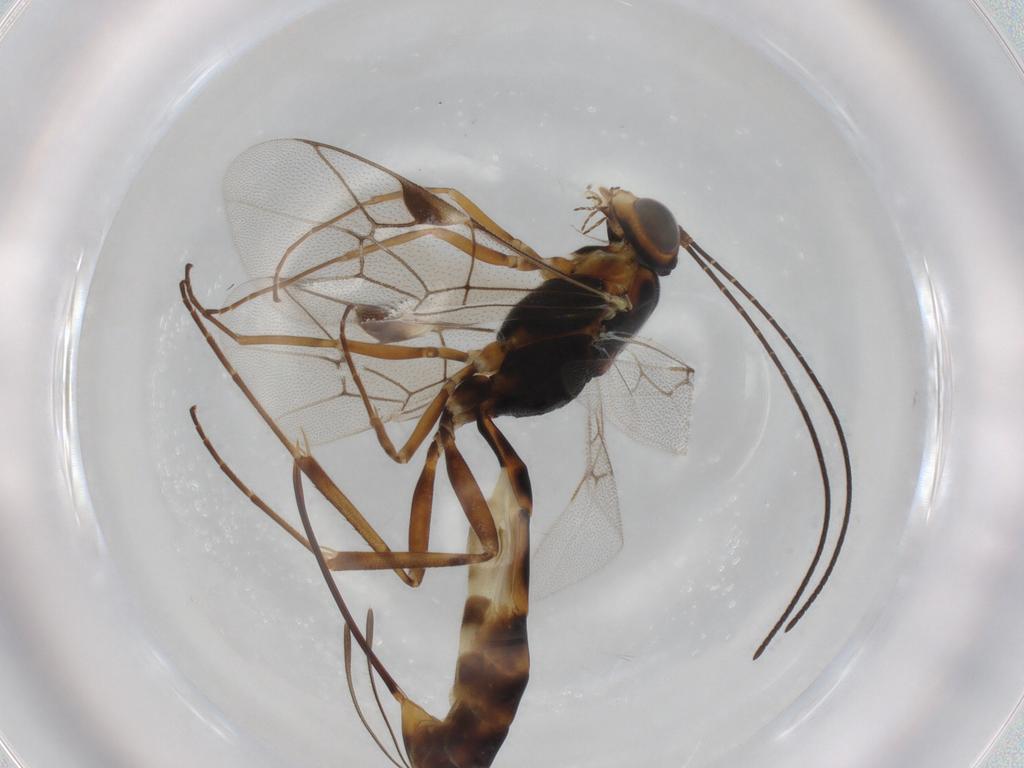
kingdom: Animalia
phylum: Arthropoda
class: Insecta
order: Hymenoptera
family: Ichneumonidae
